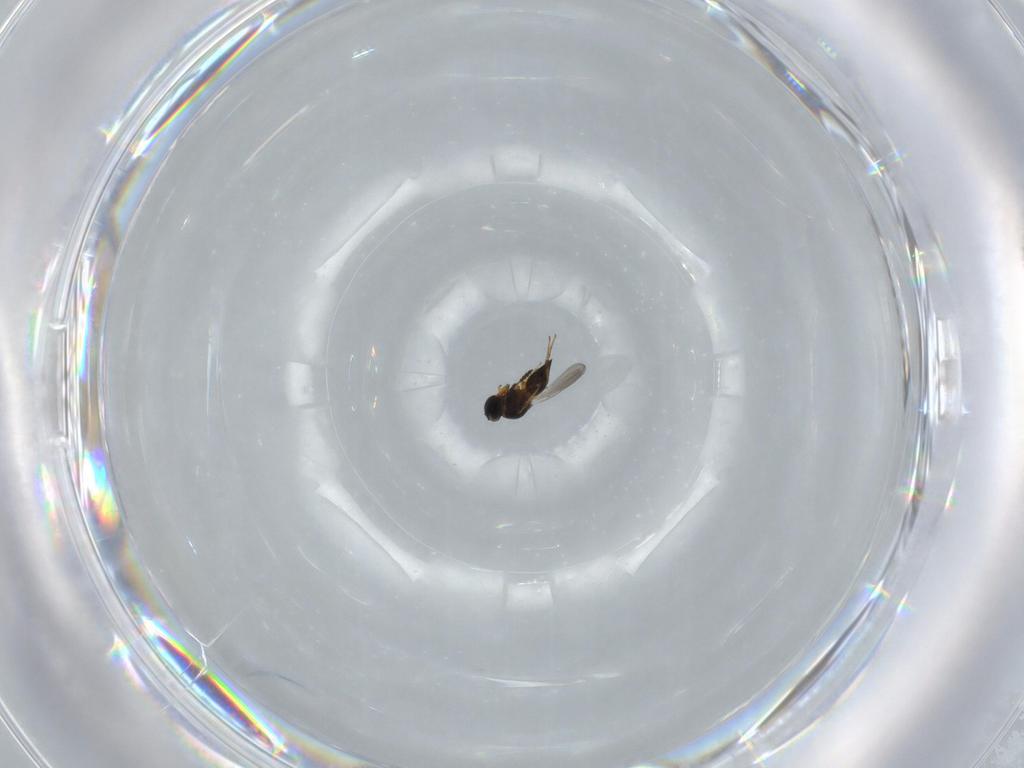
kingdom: Animalia
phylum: Arthropoda
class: Insecta
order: Hymenoptera
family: Platygastridae
